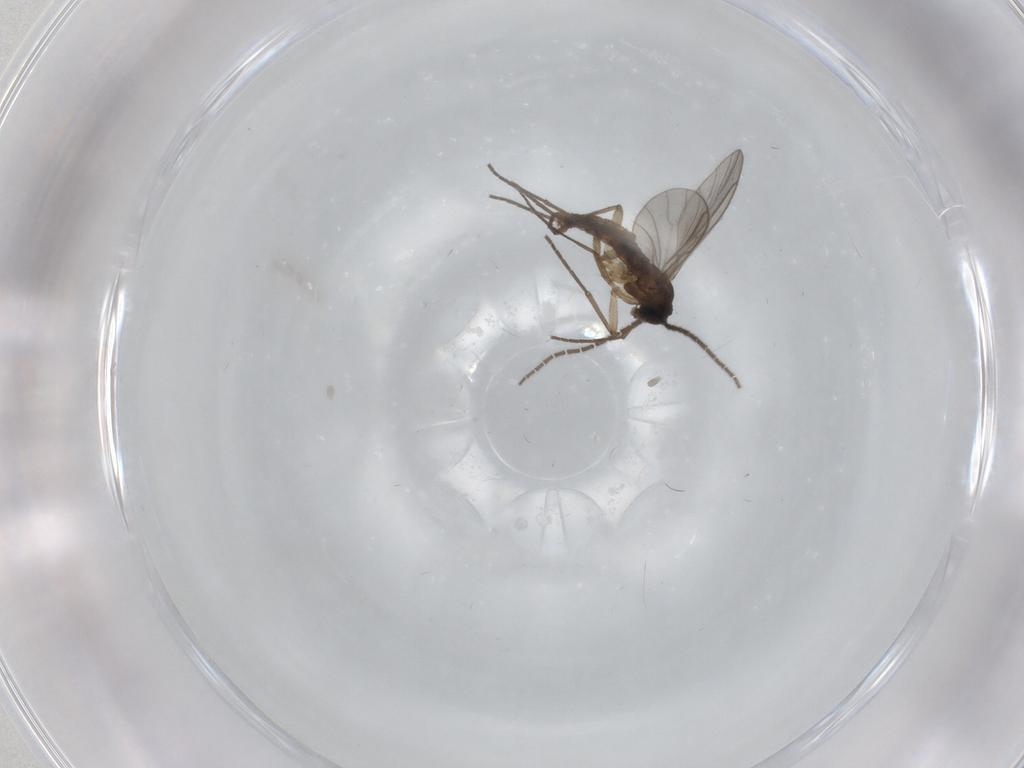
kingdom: Animalia
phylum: Arthropoda
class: Insecta
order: Diptera
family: Sciaridae
